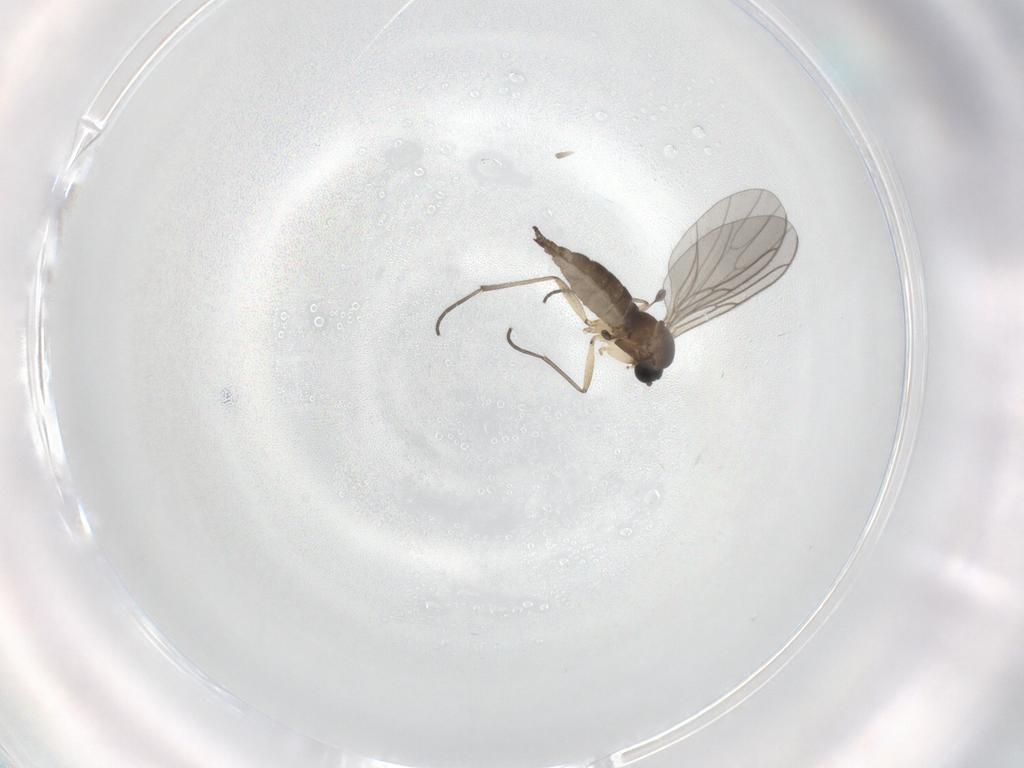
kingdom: Animalia
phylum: Arthropoda
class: Insecta
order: Diptera
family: Sciaridae
